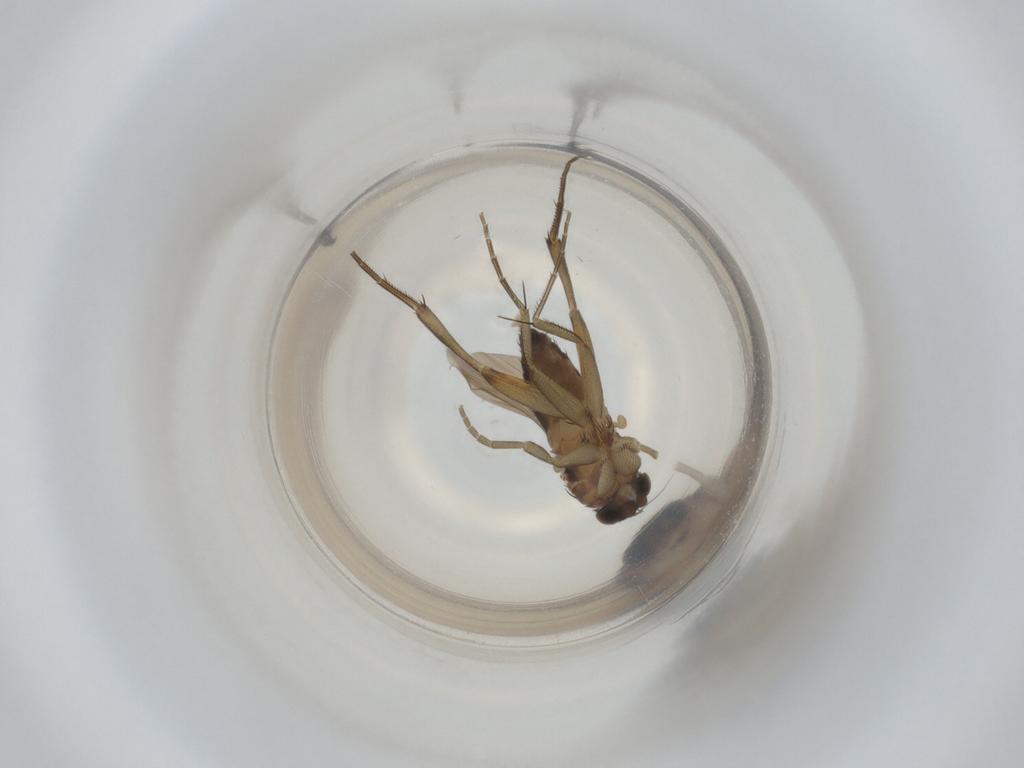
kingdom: Animalia
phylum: Arthropoda
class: Insecta
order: Diptera
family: Phoridae
